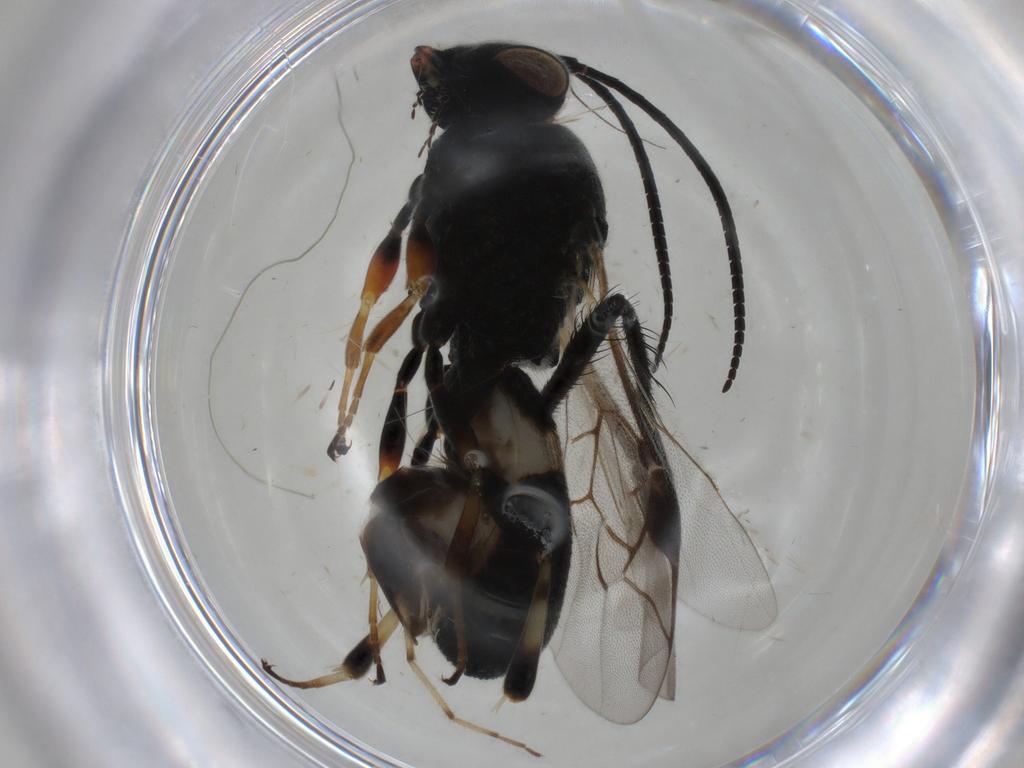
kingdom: Animalia
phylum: Arthropoda
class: Insecta
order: Hymenoptera
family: Braconidae
